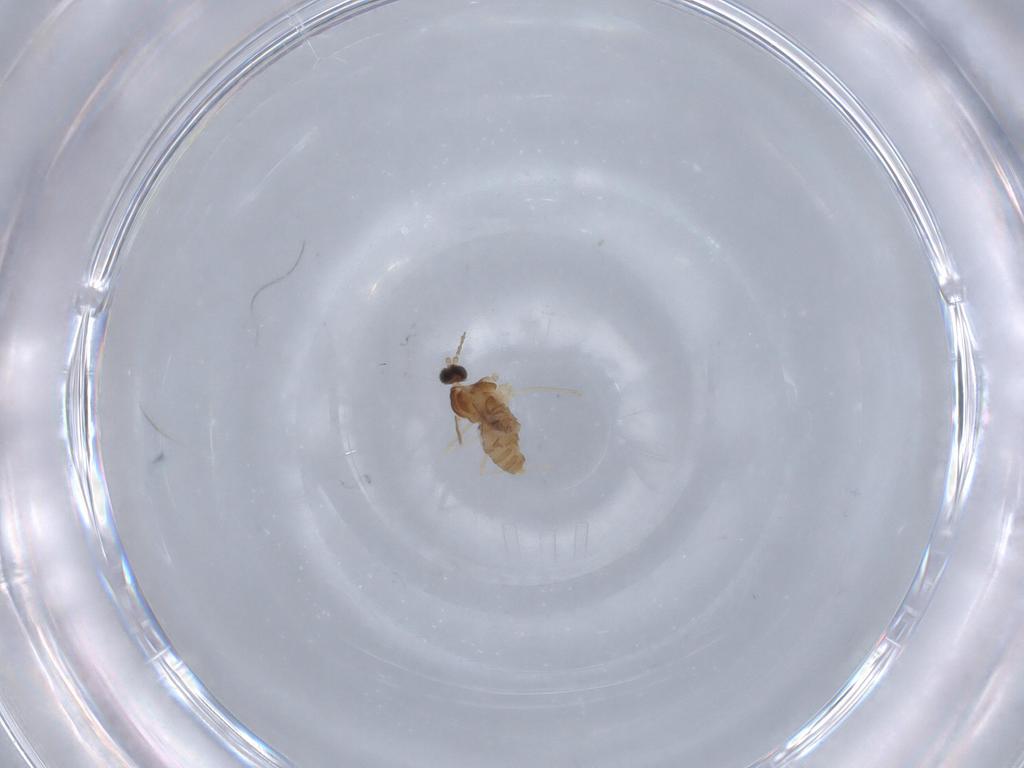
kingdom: Animalia
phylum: Arthropoda
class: Insecta
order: Diptera
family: Cecidomyiidae
